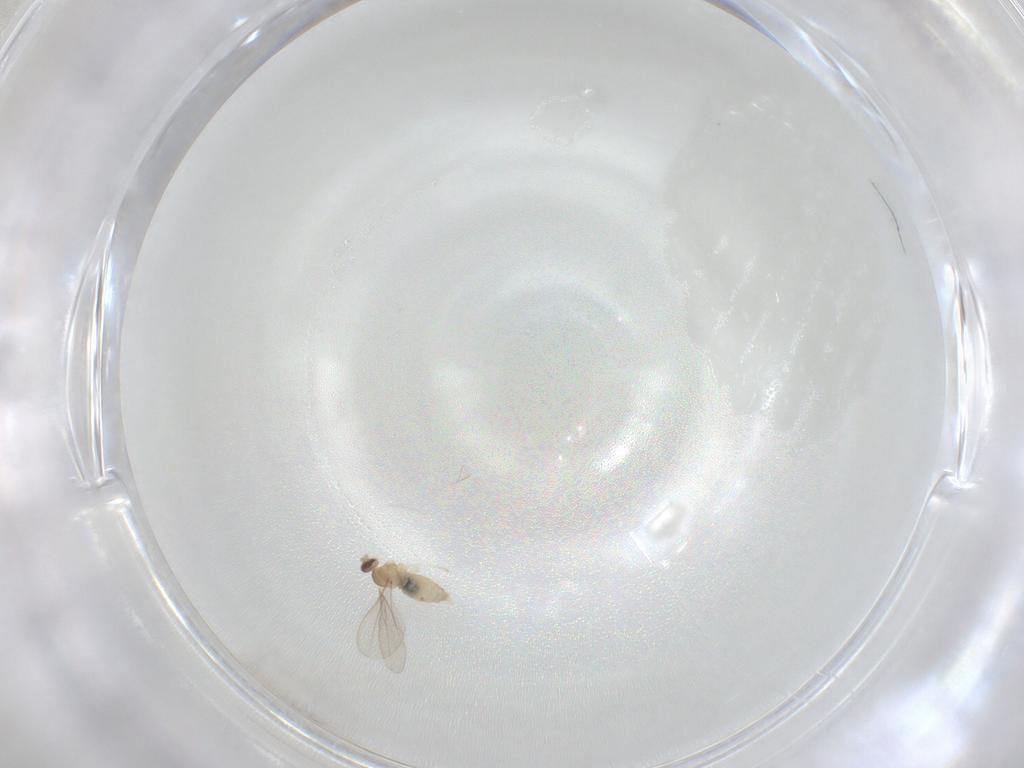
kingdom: Animalia
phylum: Arthropoda
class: Insecta
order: Diptera
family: Cecidomyiidae
